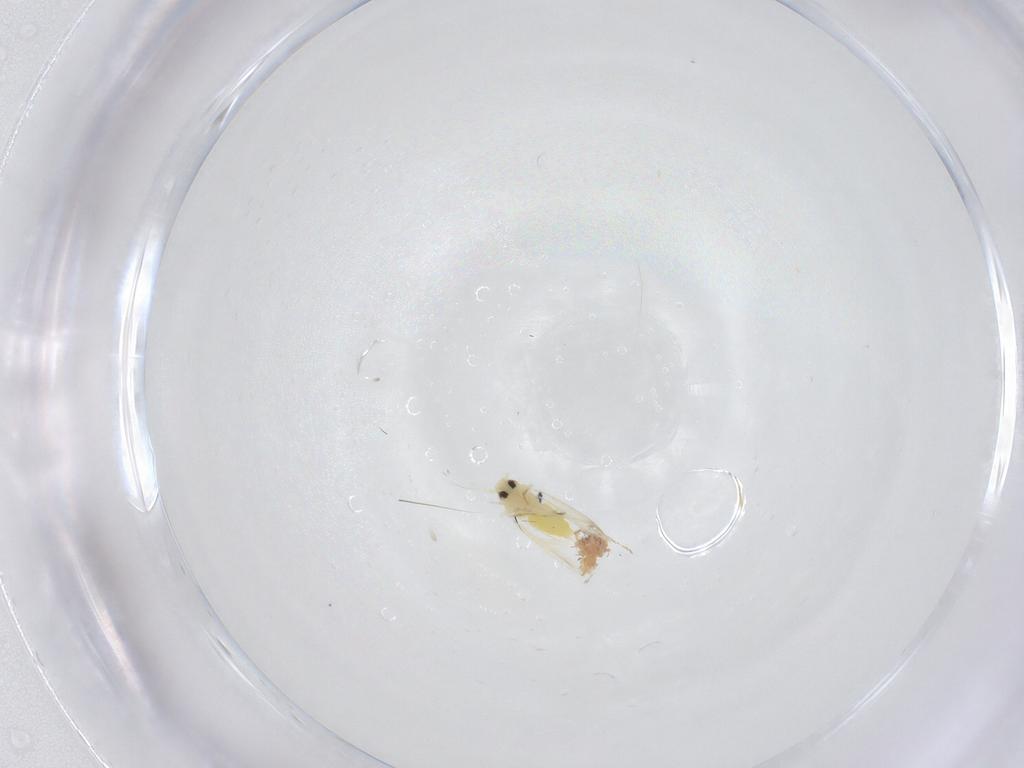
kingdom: Animalia
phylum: Arthropoda
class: Insecta
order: Hemiptera
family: Aleyrodidae
